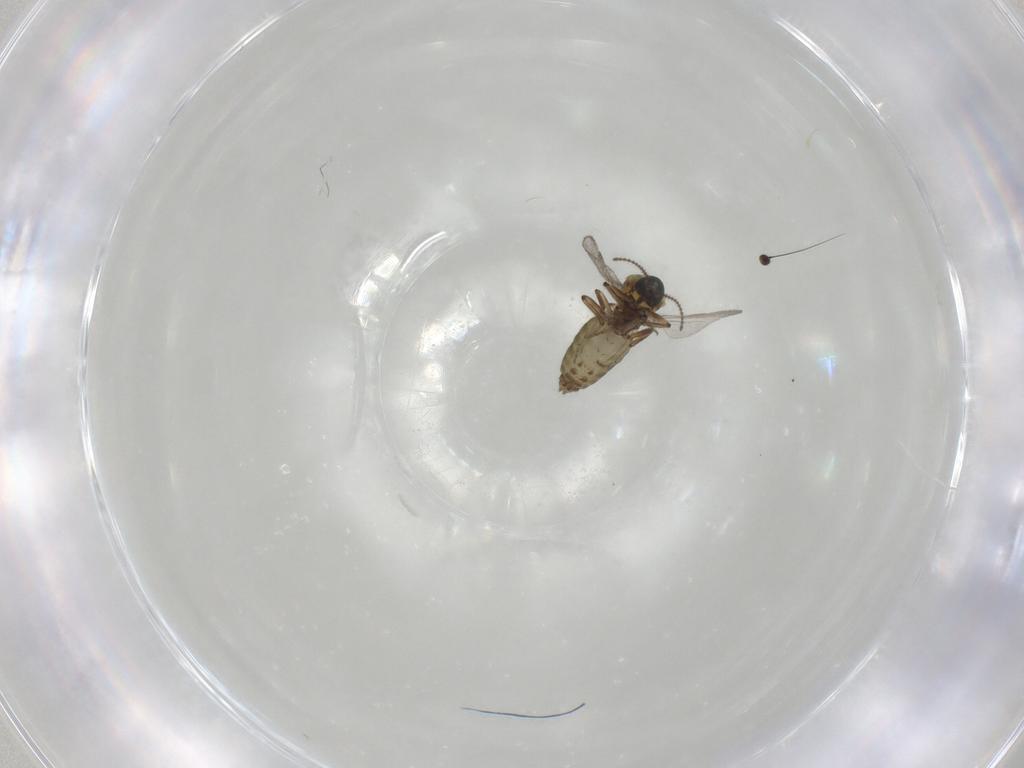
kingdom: Animalia
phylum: Arthropoda
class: Insecta
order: Diptera
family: Ceratopogonidae
